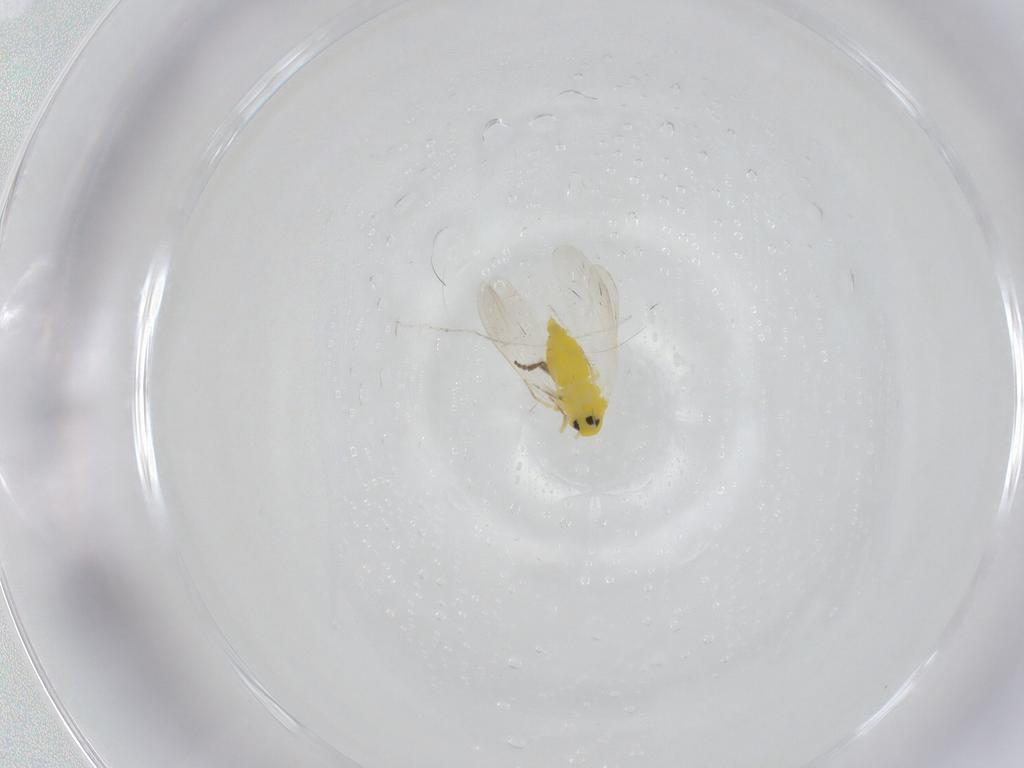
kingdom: Animalia
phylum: Arthropoda
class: Insecta
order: Hemiptera
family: Aleyrodidae
